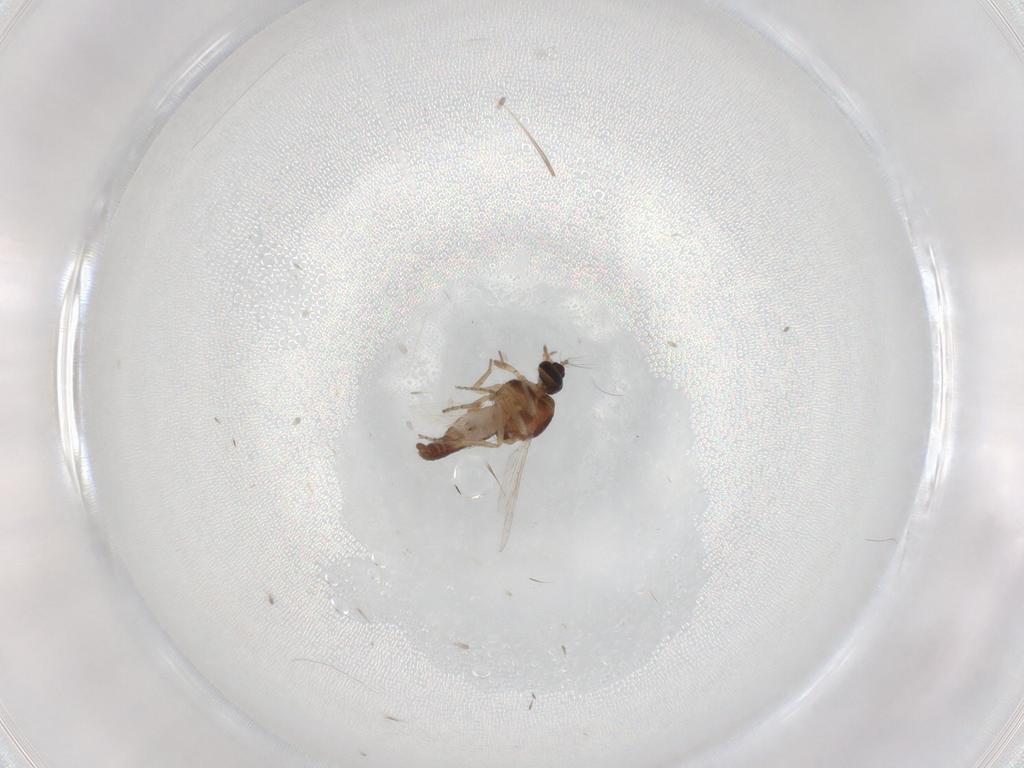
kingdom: Animalia
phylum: Arthropoda
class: Insecta
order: Diptera
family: Ceratopogonidae
